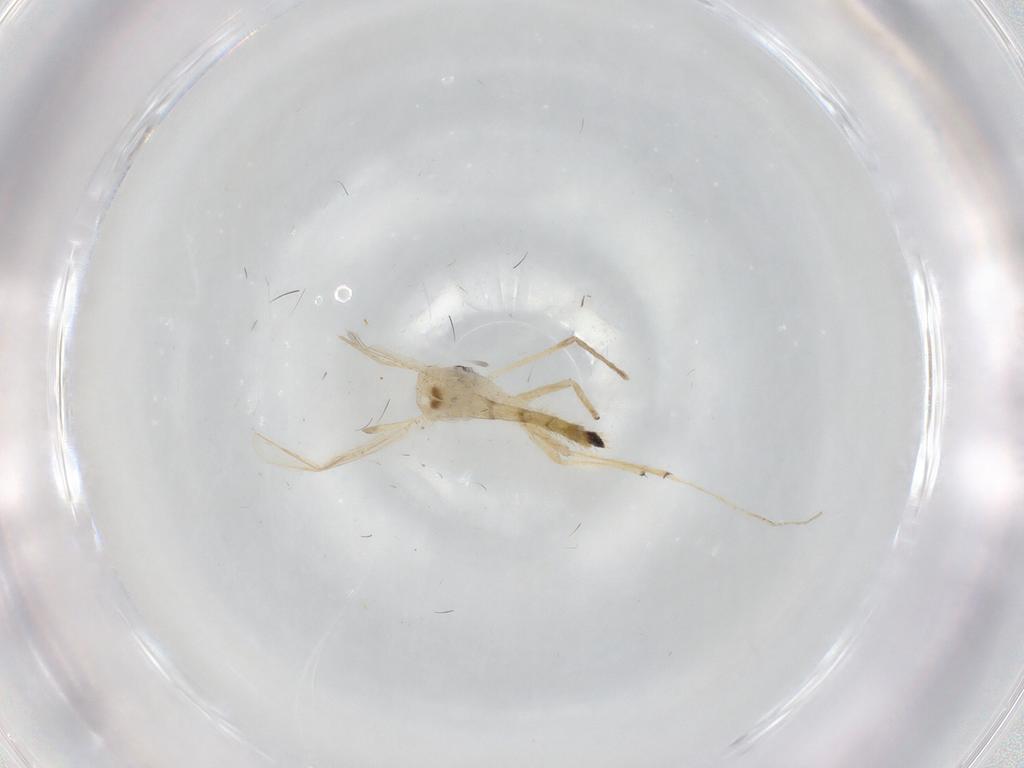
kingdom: Animalia
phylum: Arthropoda
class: Insecta
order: Diptera
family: Chironomidae
